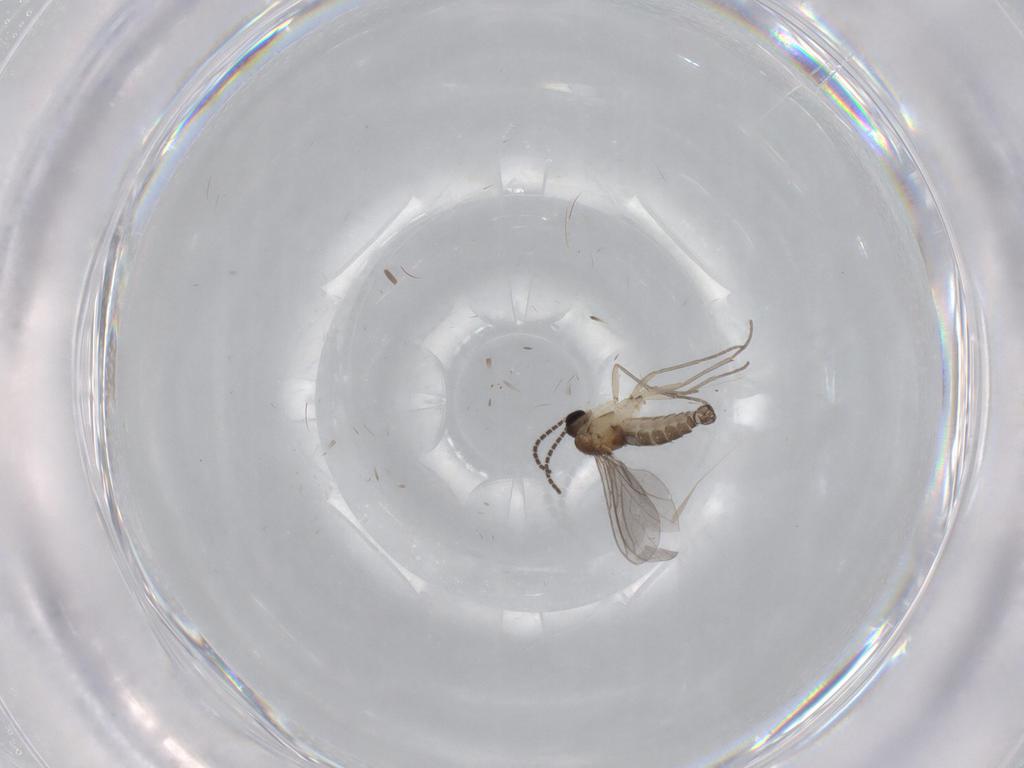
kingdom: Animalia
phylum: Arthropoda
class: Insecta
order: Diptera
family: Sciaridae
